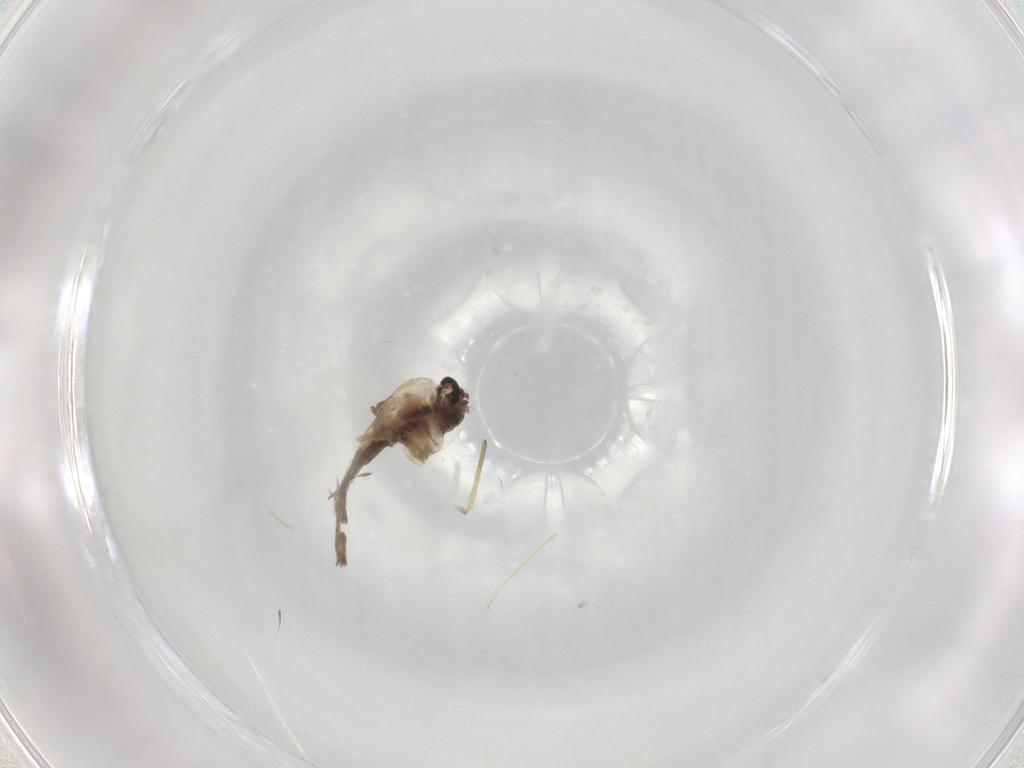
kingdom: Animalia
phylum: Arthropoda
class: Insecta
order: Diptera
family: Chironomidae
